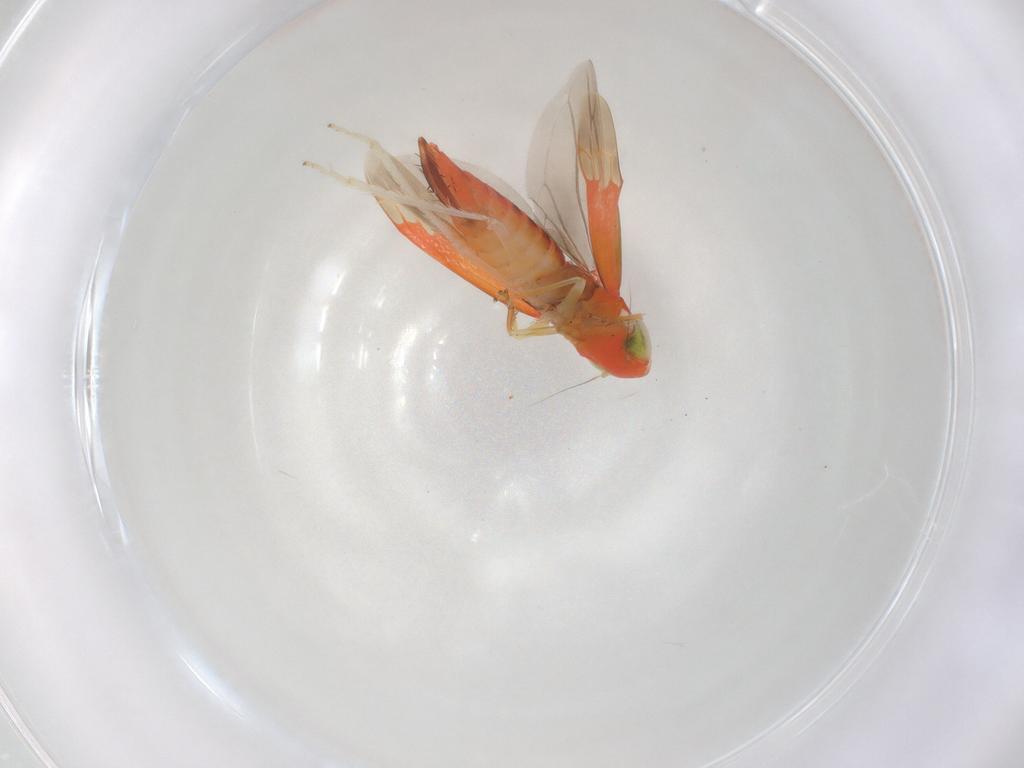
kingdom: Animalia
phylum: Arthropoda
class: Insecta
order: Hemiptera
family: Cicadellidae
